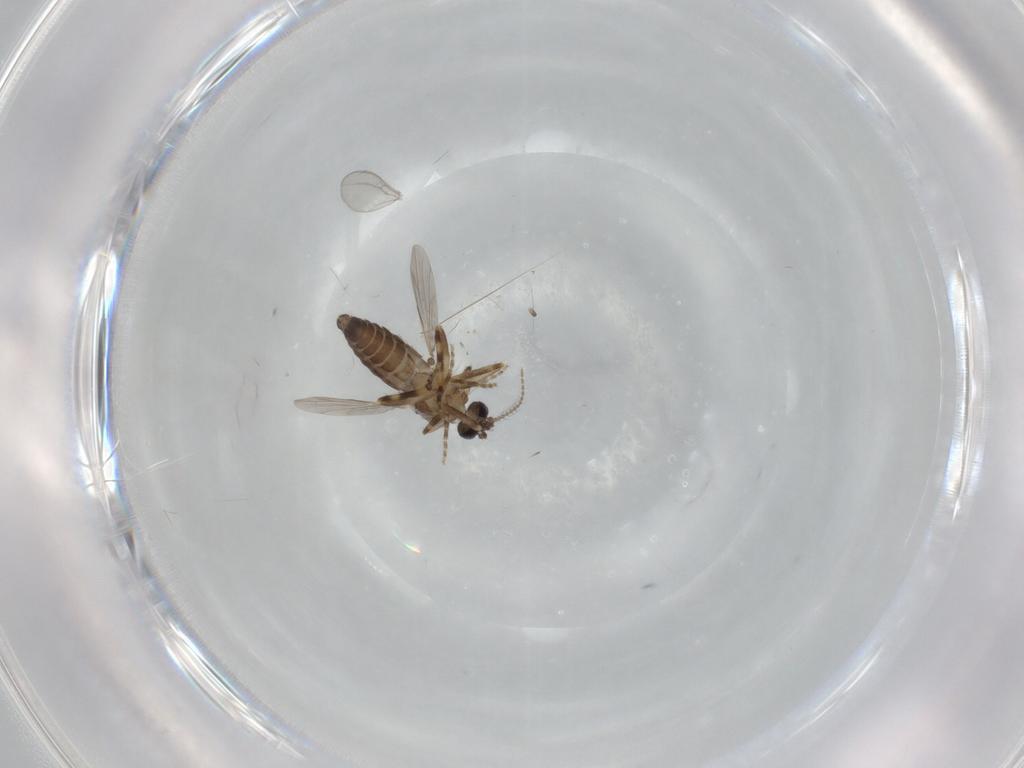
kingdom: Animalia
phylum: Arthropoda
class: Insecta
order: Diptera
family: Ceratopogonidae
